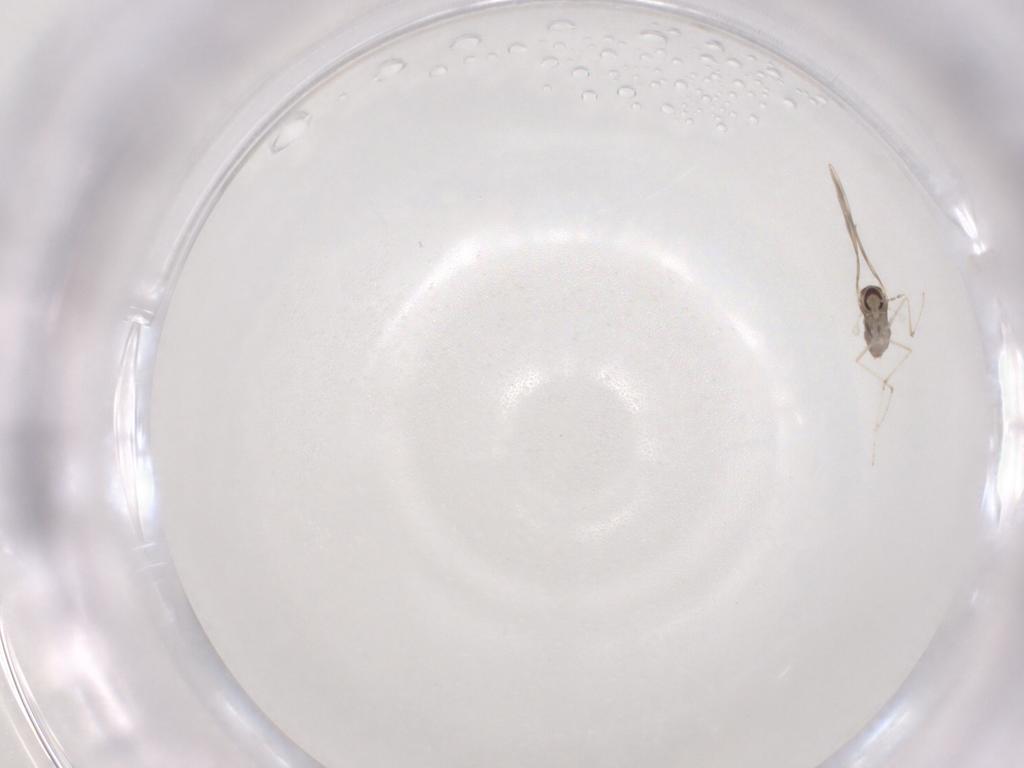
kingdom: Animalia
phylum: Arthropoda
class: Insecta
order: Diptera
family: Cecidomyiidae
